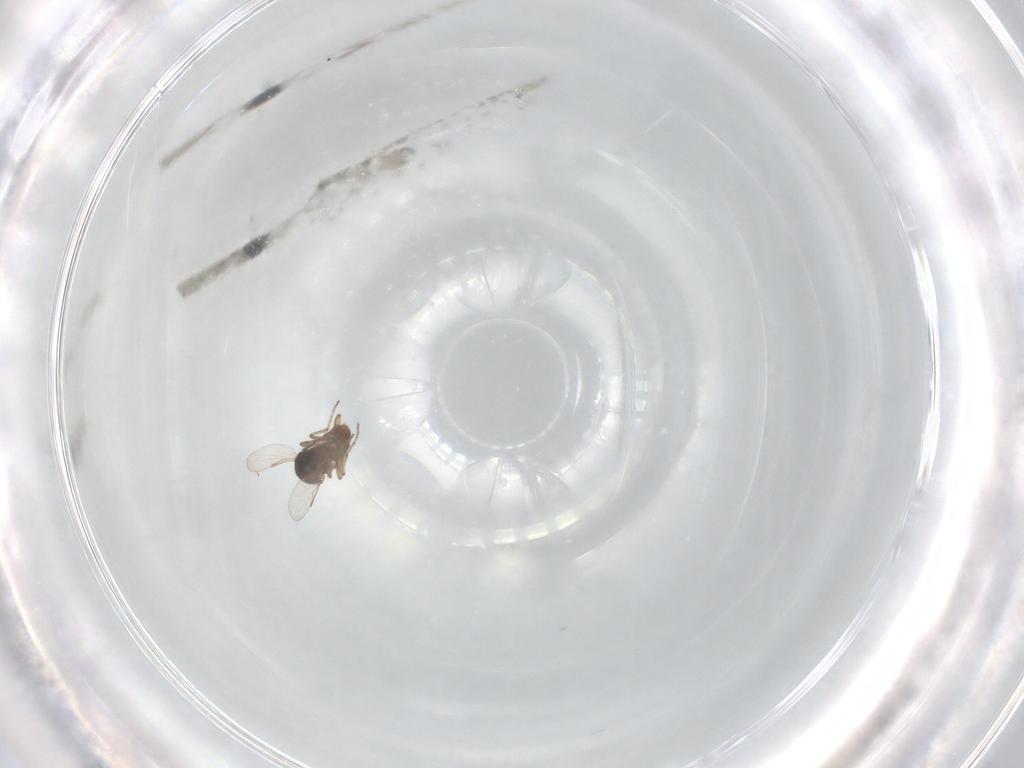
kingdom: Animalia
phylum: Arthropoda
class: Insecta
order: Diptera
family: Ceratopogonidae
